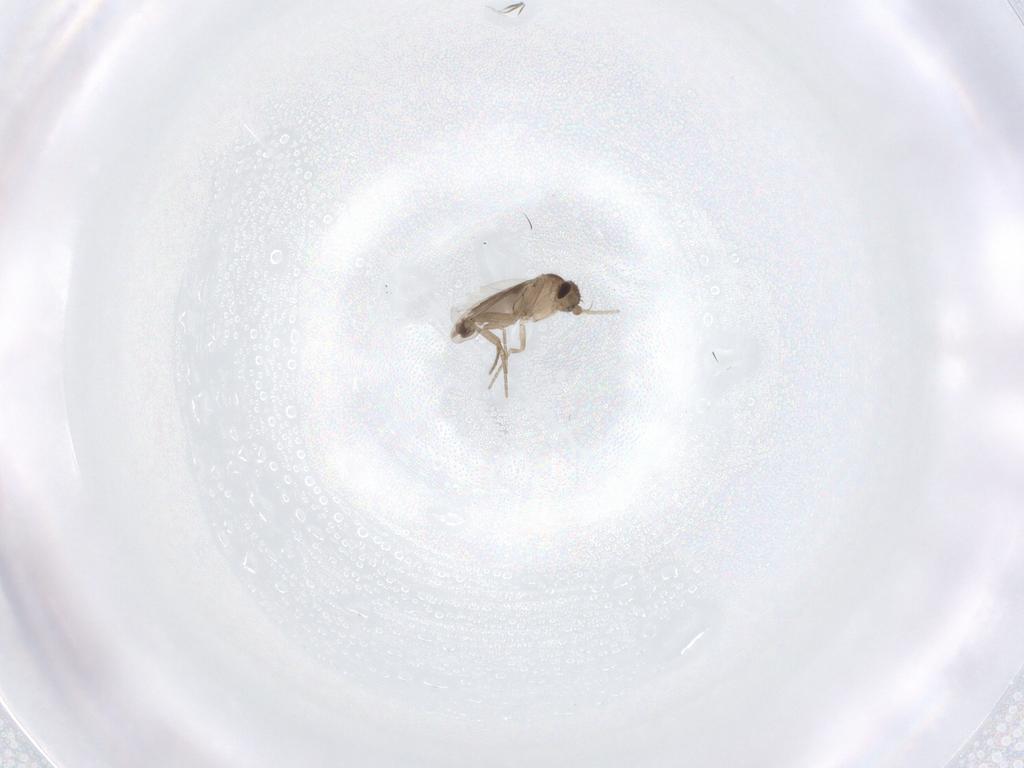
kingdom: Animalia
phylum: Arthropoda
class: Insecta
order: Diptera
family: Phoridae
